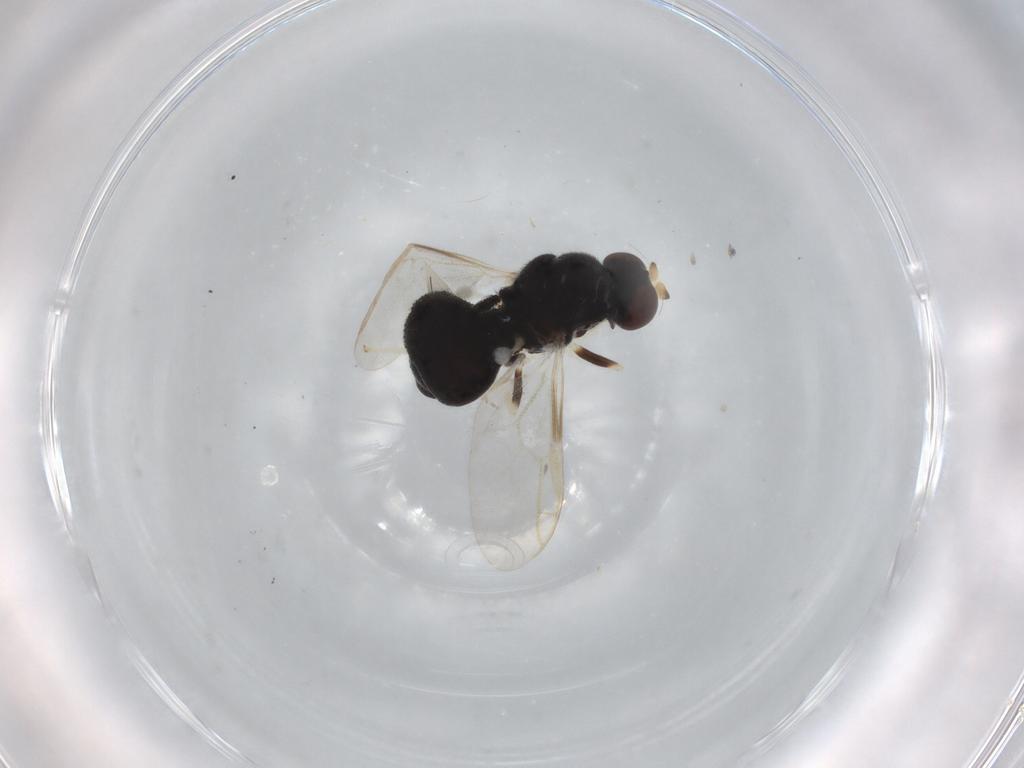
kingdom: Animalia
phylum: Arthropoda
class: Insecta
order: Diptera
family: Stratiomyidae
